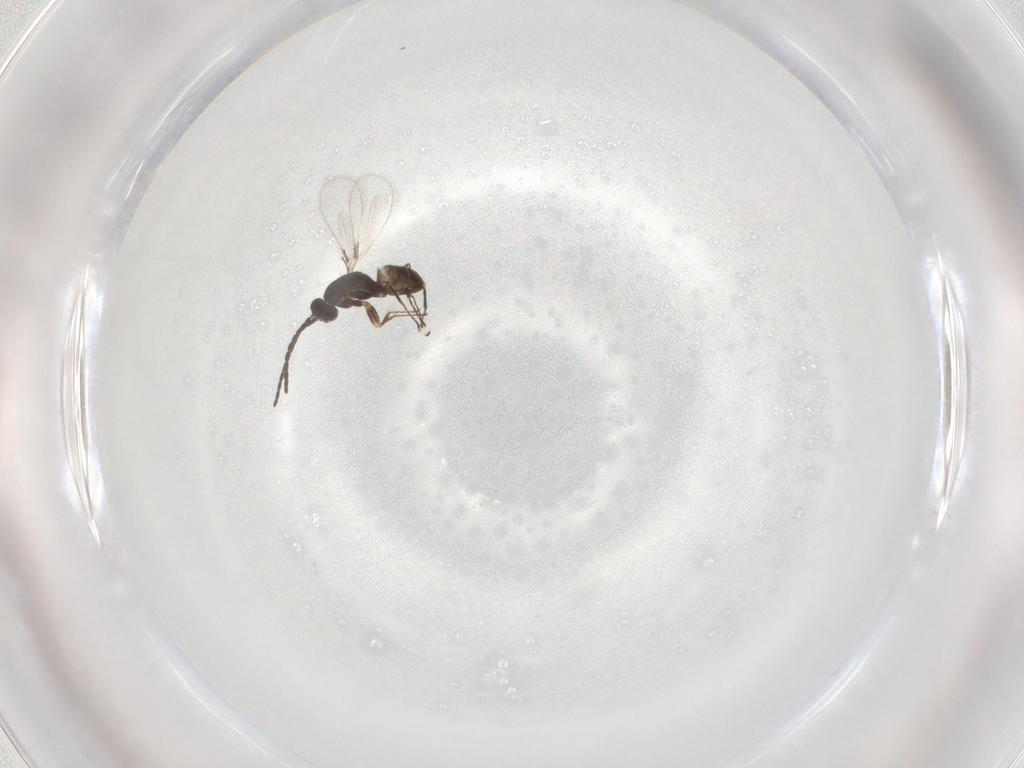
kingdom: Animalia
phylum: Arthropoda
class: Insecta
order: Hymenoptera
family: Mymaridae
